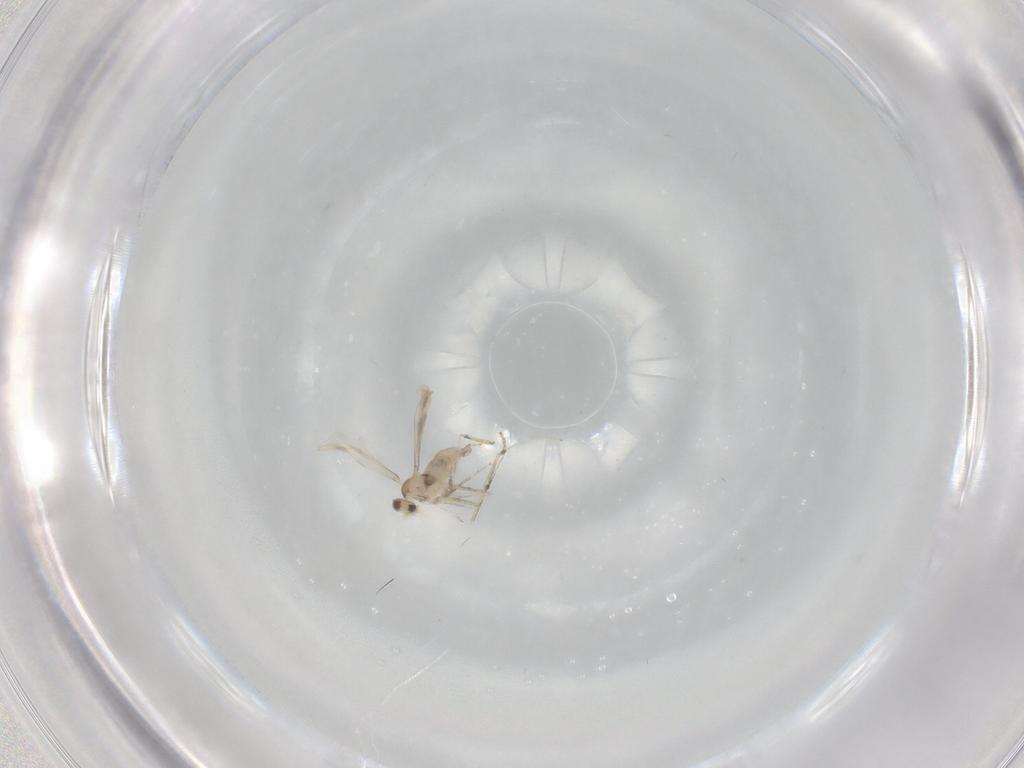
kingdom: Animalia
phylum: Arthropoda
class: Insecta
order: Diptera
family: Cecidomyiidae
